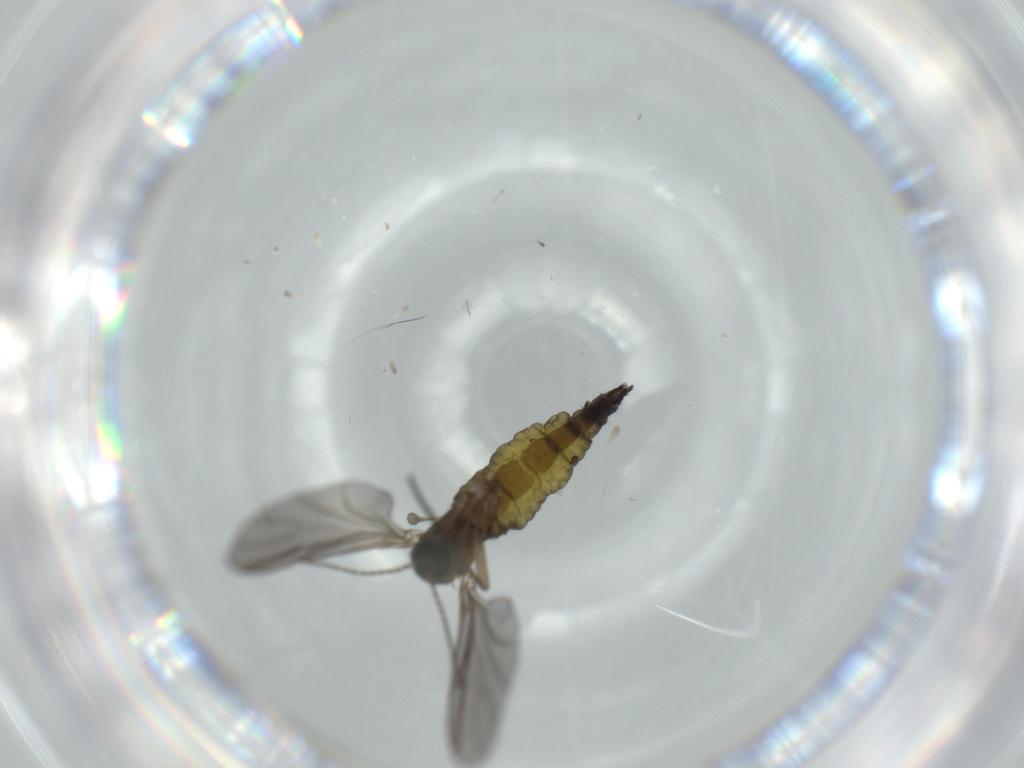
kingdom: Animalia
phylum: Arthropoda
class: Insecta
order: Diptera
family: Sciaridae
